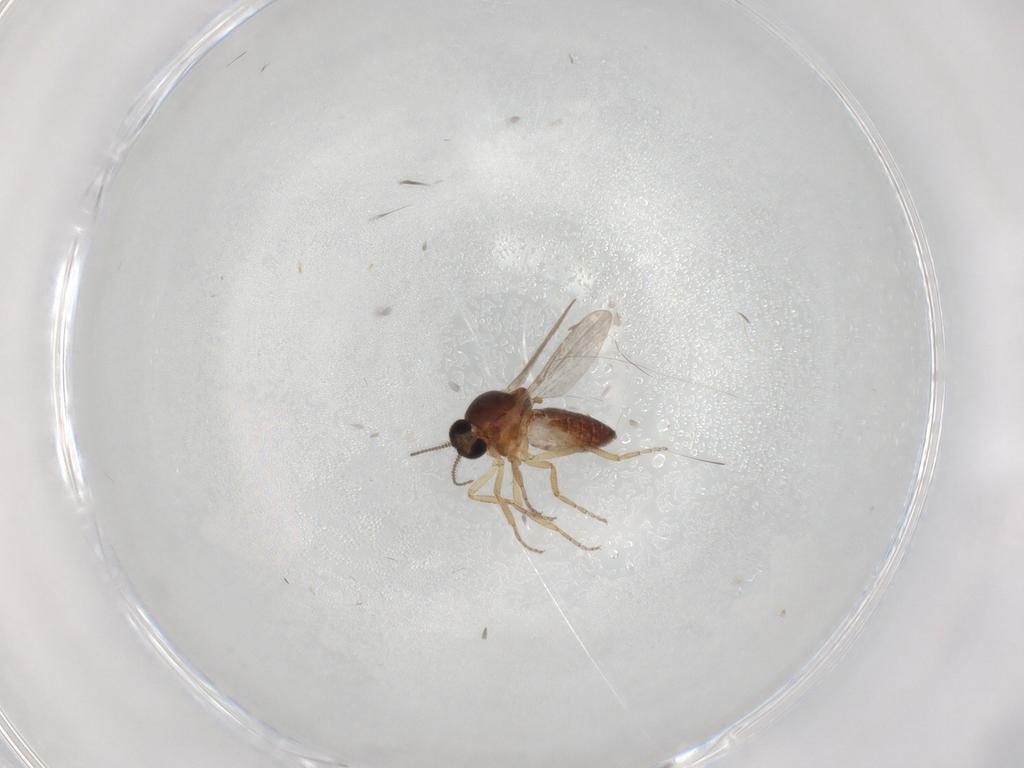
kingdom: Animalia
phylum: Arthropoda
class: Insecta
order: Diptera
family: Ceratopogonidae
